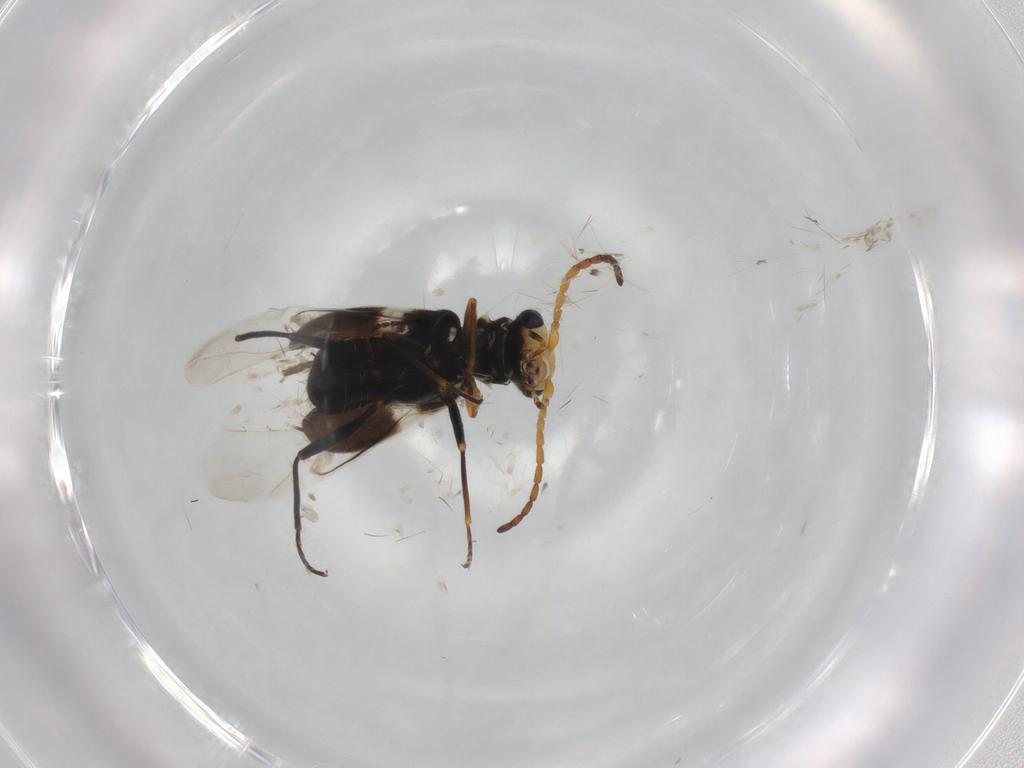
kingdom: Animalia
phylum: Arthropoda
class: Insecta
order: Coleoptera
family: Melyridae
